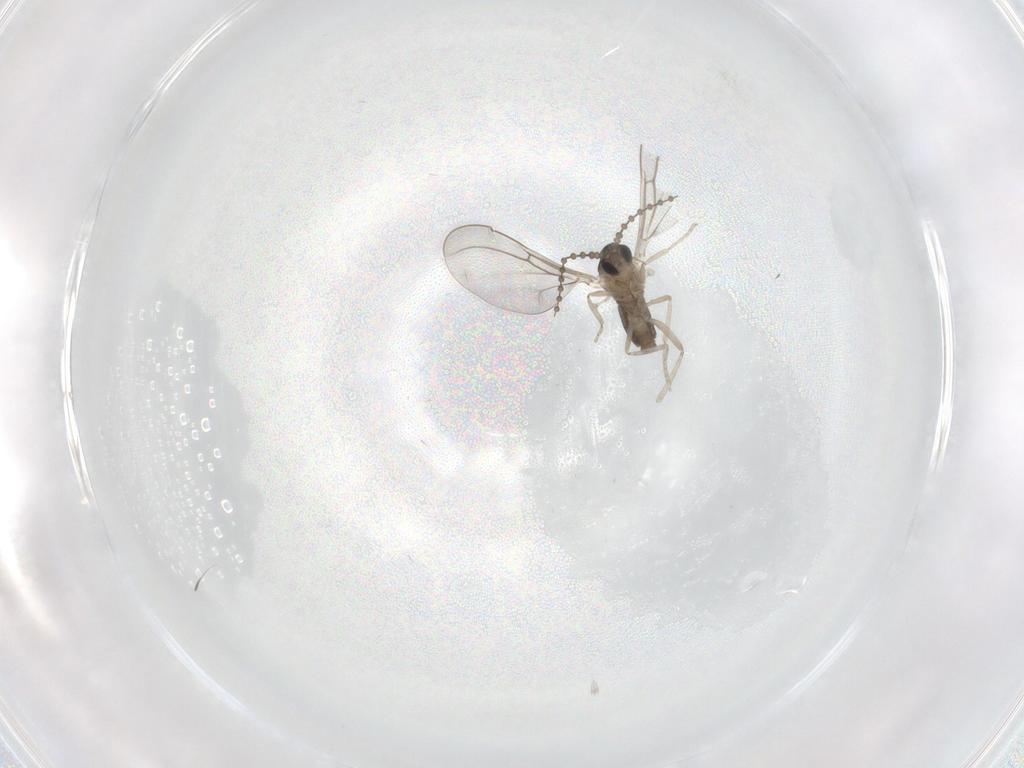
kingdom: Animalia
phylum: Arthropoda
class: Insecta
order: Diptera
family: Cecidomyiidae
